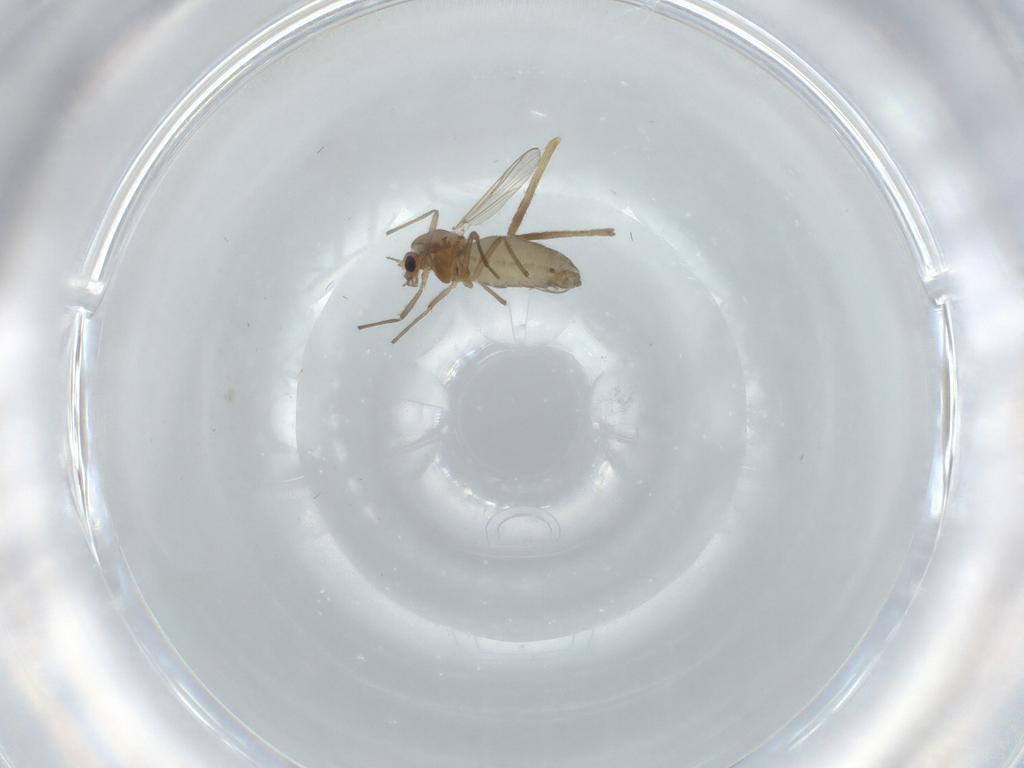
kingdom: Animalia
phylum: Arthropoda
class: Insecta
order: Diptera
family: Chironomidae
